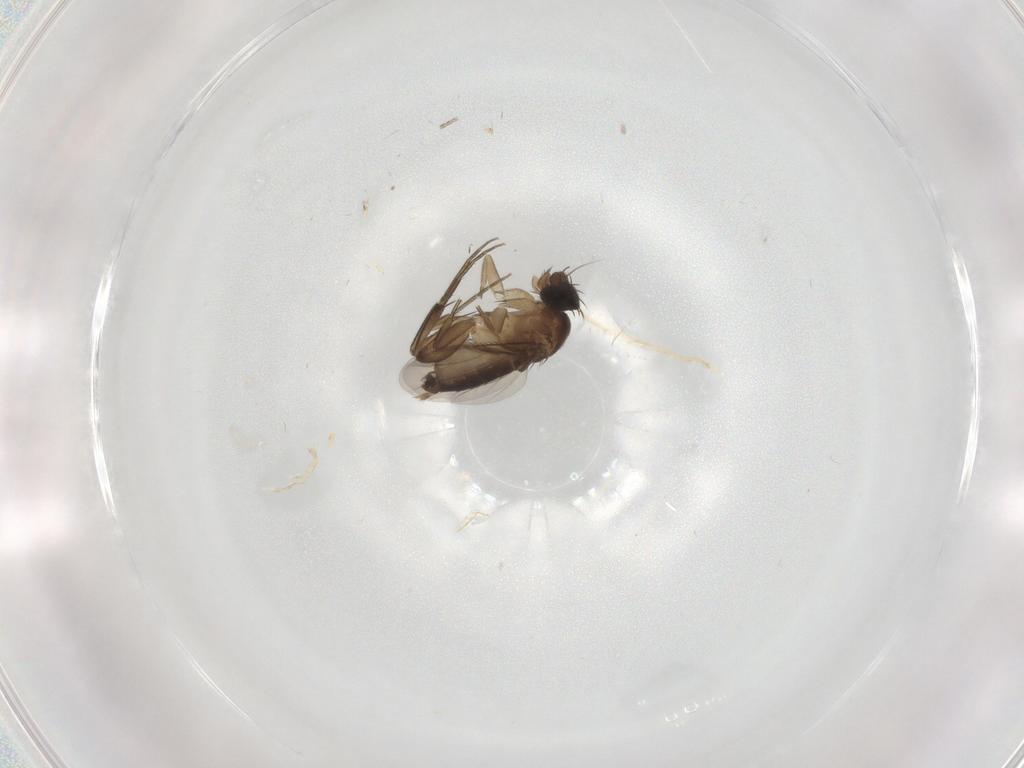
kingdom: Animalia
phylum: Arthropoda
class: Insecta
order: Diptera
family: Phoridae
